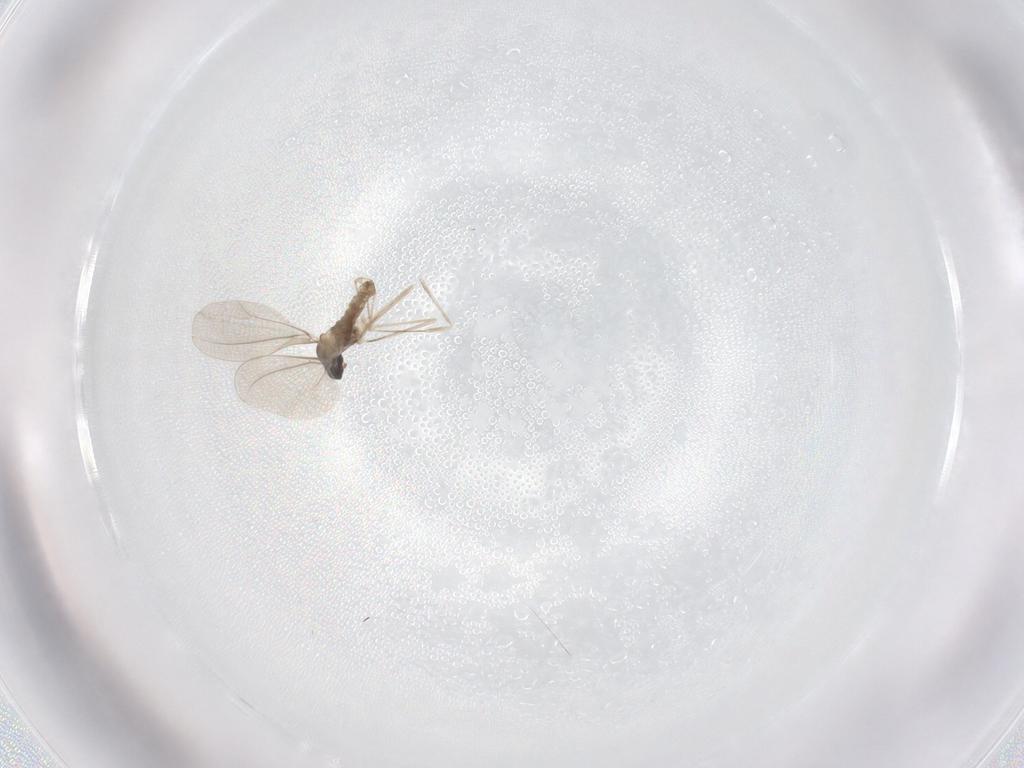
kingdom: Animalia
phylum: Arthropoda
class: Insecta
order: Diptera
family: Cecidomyiidae
